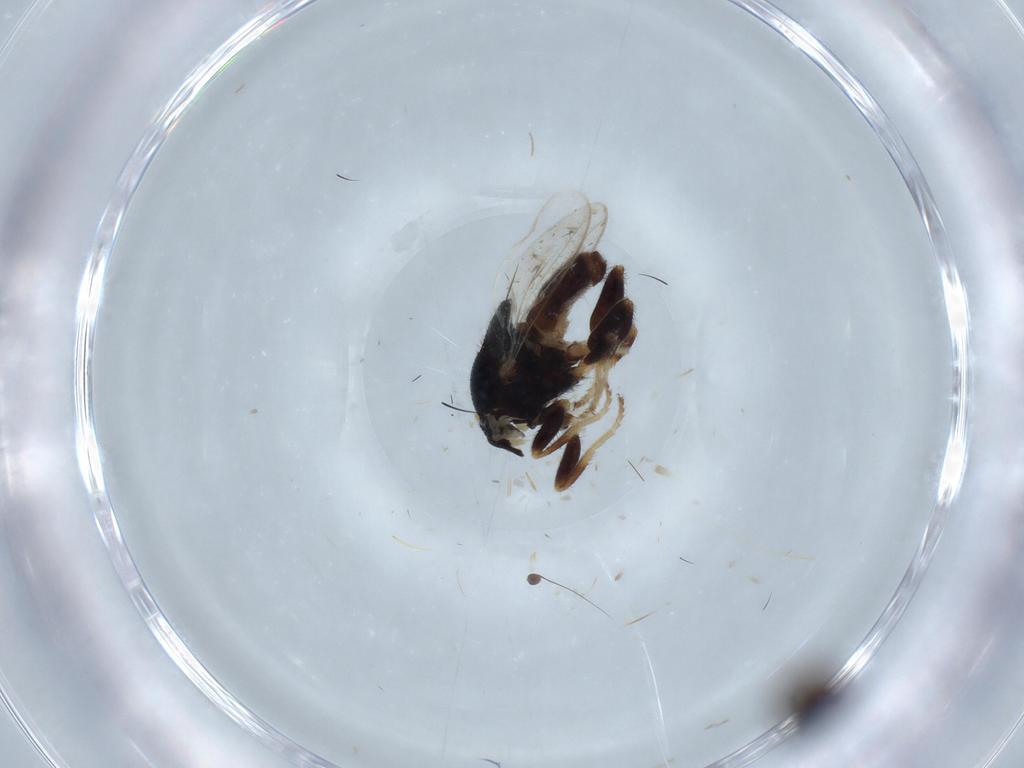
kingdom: Animalia
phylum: Arthropoda
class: Insecta
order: Diptera
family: Chloropidae
